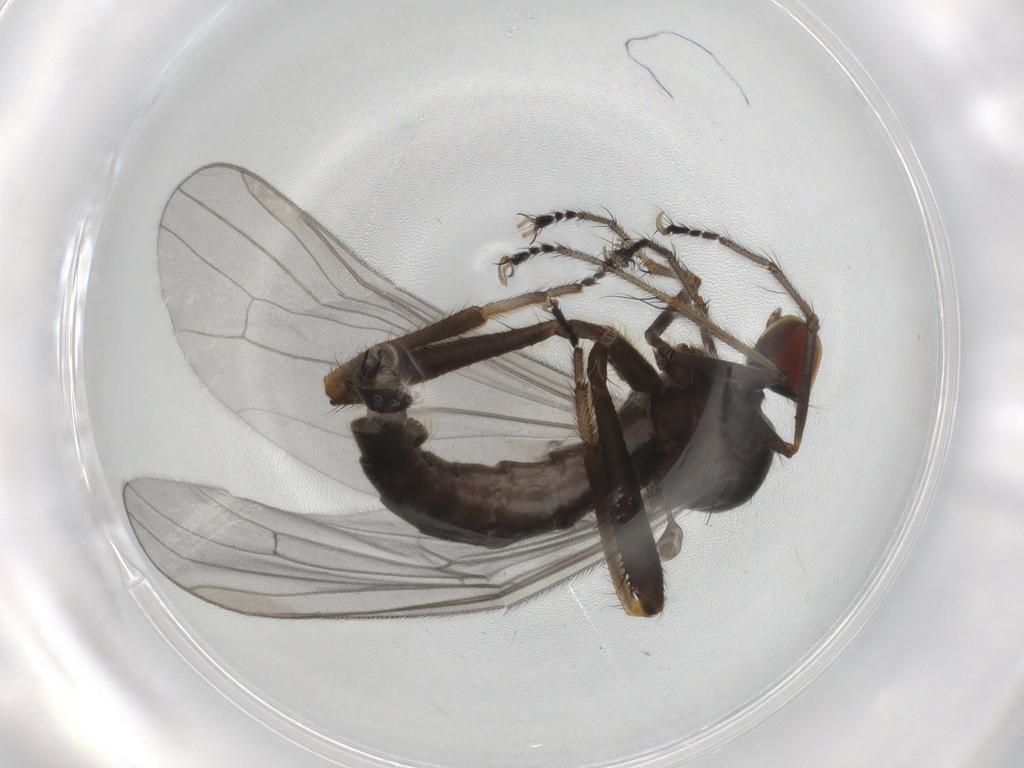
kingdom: Animalia
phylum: Arthropoda
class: Insecta
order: Diptera
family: Hybotidae
